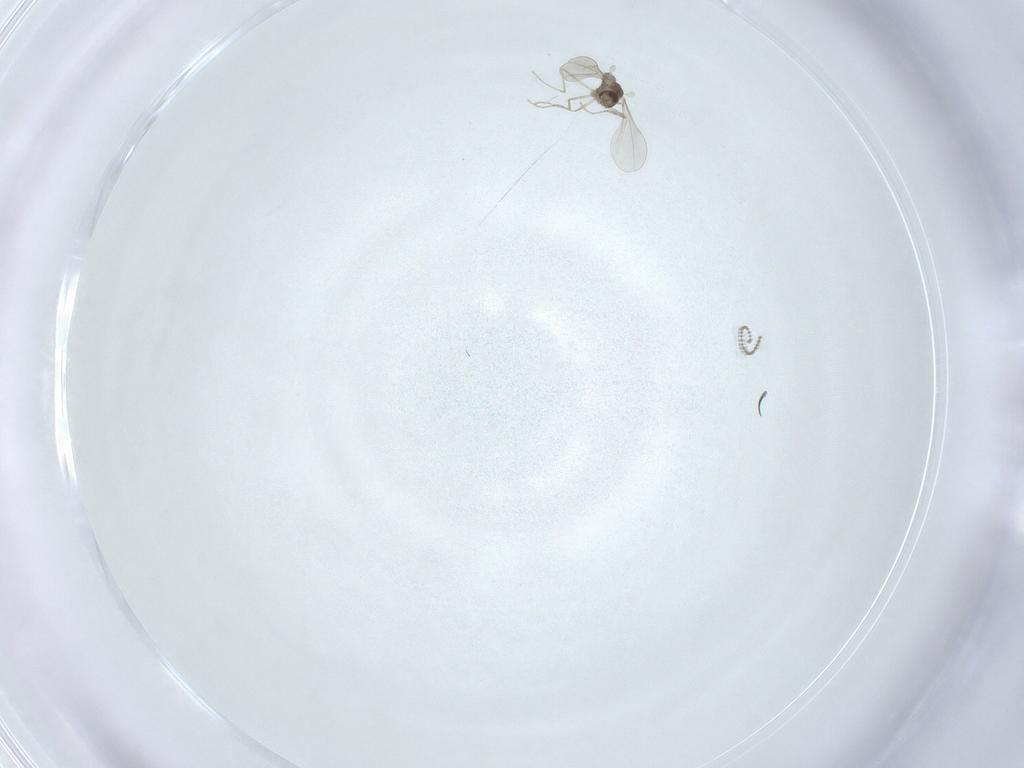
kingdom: Animalia
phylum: Arthropoda
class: Insecta
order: Diptera
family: Cecidomyiidae
